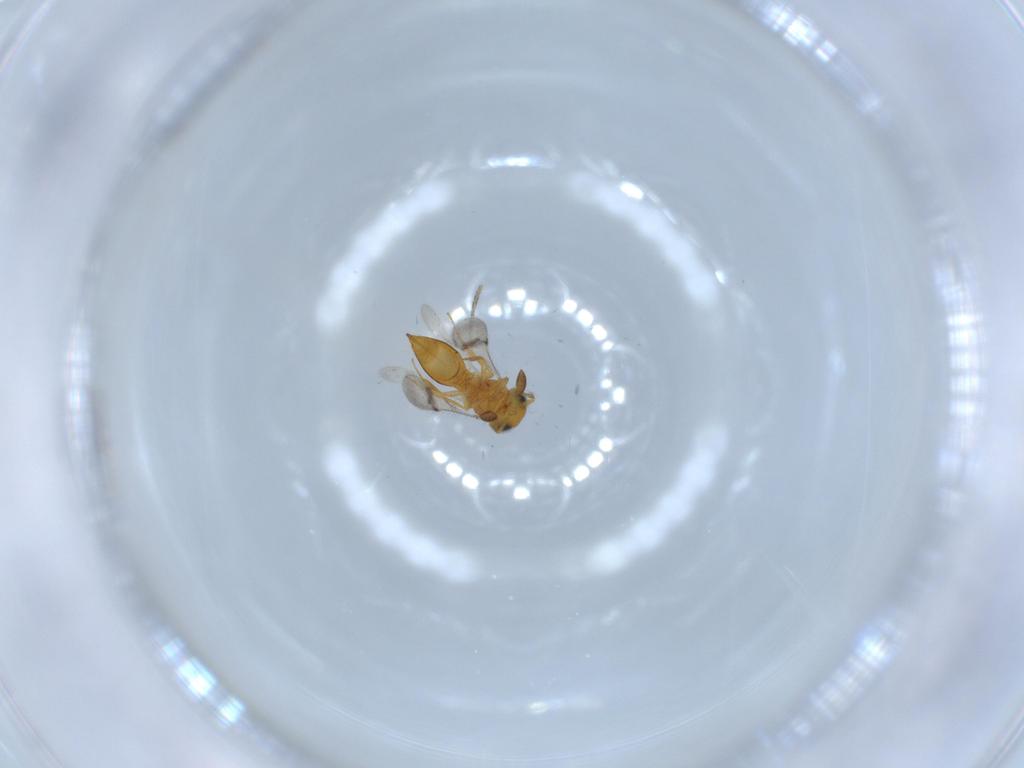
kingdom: Animalia
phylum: Arthropoda
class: Insecta
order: Hymenoptera
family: Scelionidae
